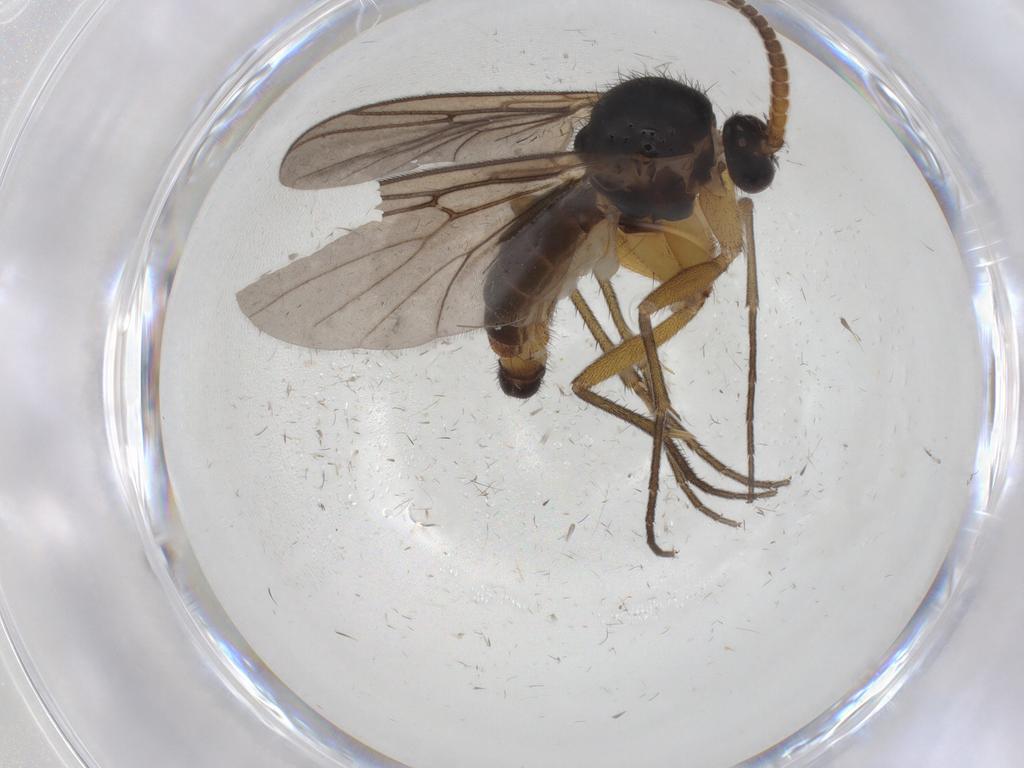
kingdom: Animalia
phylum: Arthropoda
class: Insecta
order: Diptera
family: Mycetophilidae
